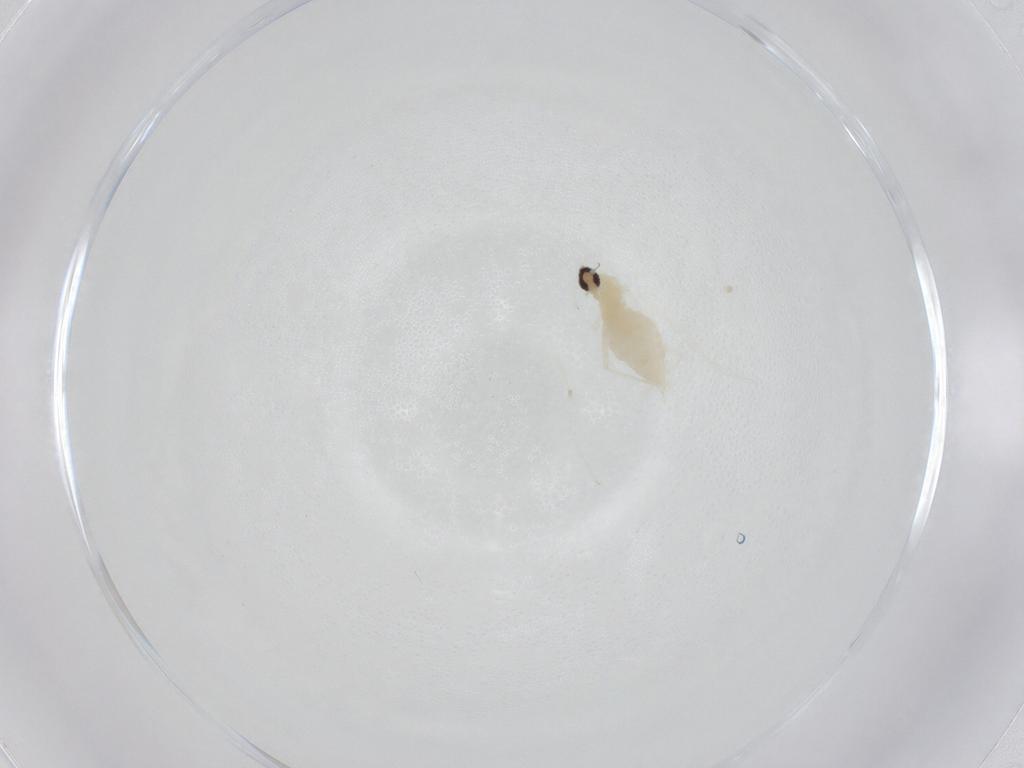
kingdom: Animalia
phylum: Arthropoda
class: Insecta
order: Diptera
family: Cecidomyiidae
